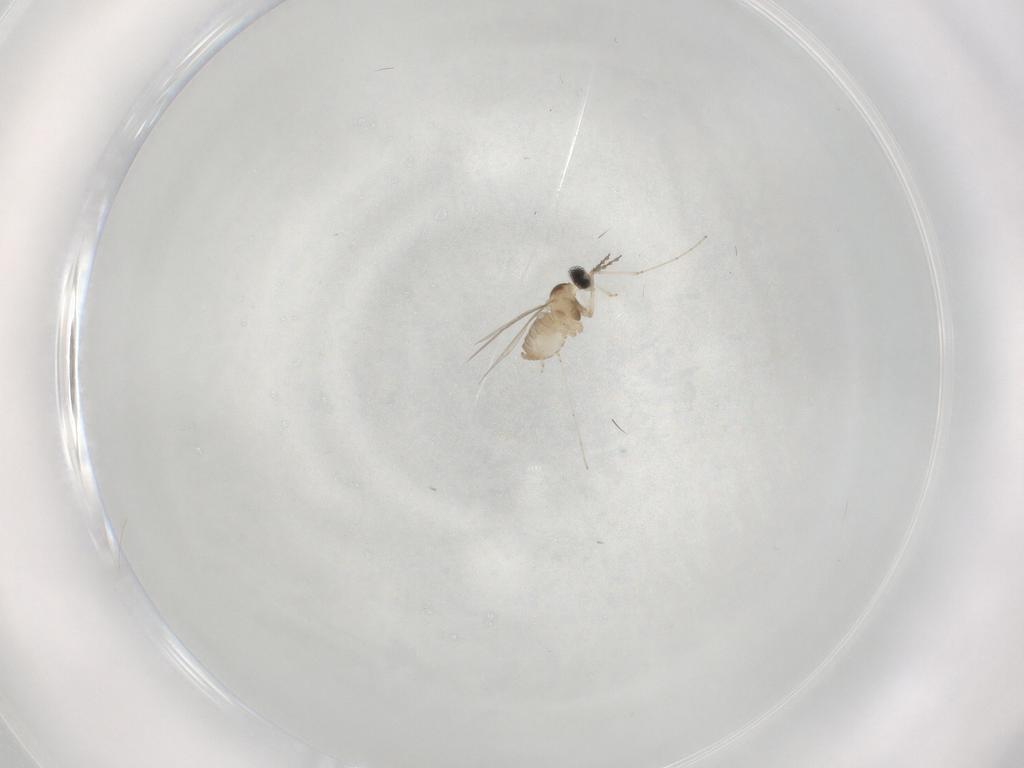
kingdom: Animalia
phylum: Arthropoda
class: Insecta
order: Diptera
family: Cecidomyiidae
